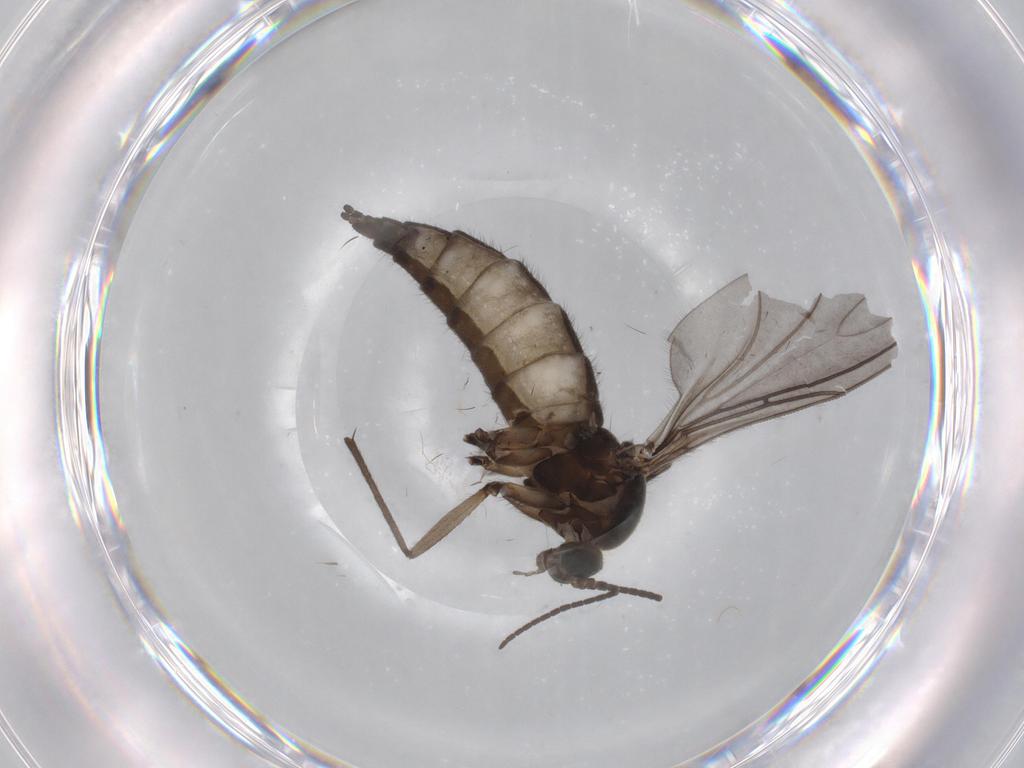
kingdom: Animalia
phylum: Arthropoda
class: Insecta
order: Diptera
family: Sciaridae
